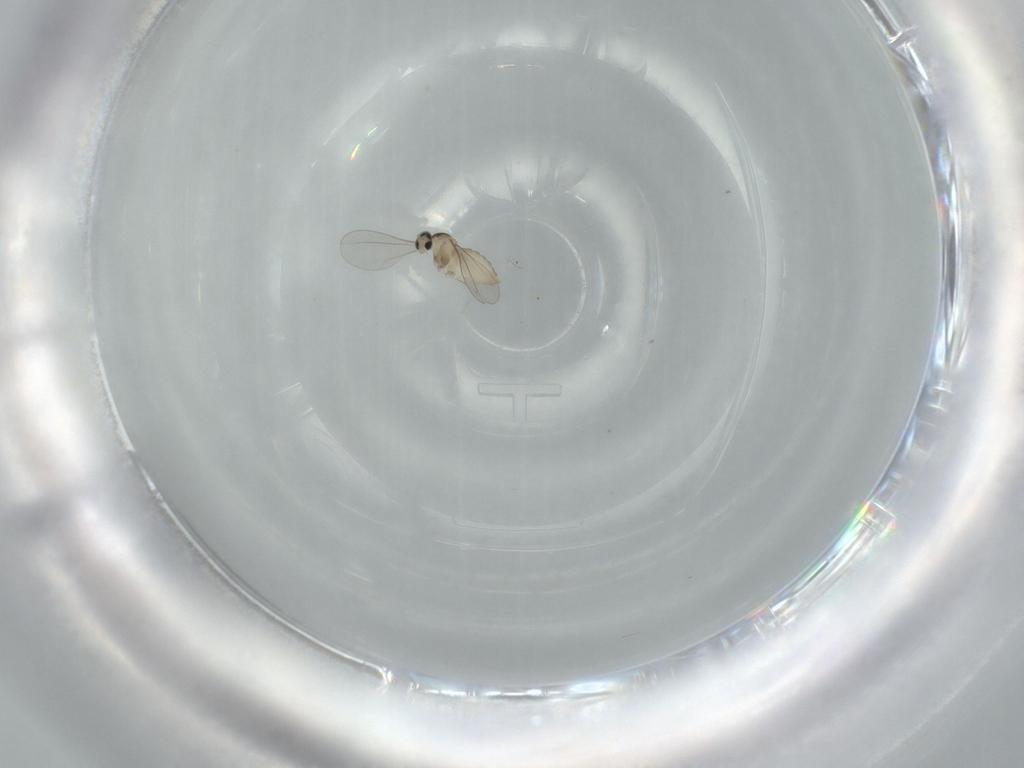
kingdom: Animalia
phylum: Arthropoda
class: Insecta
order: Diptera
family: Cecidomyiidae
